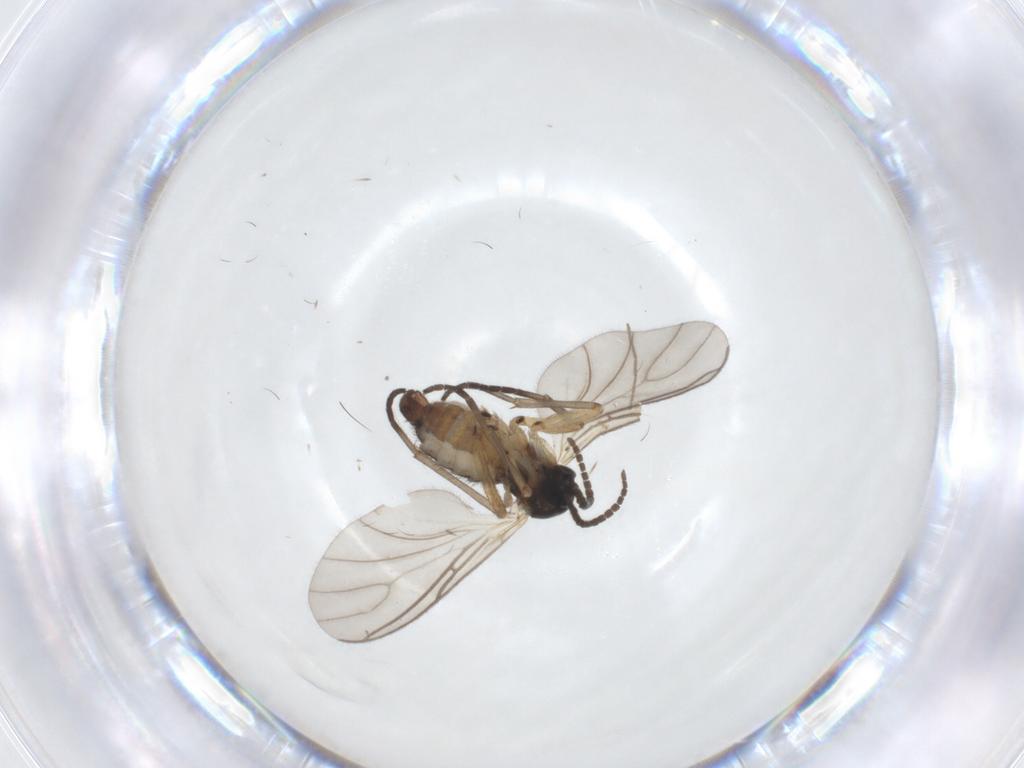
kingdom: Animalia
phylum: Arthropoda
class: Insecta
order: Diptera
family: Sciaridae
